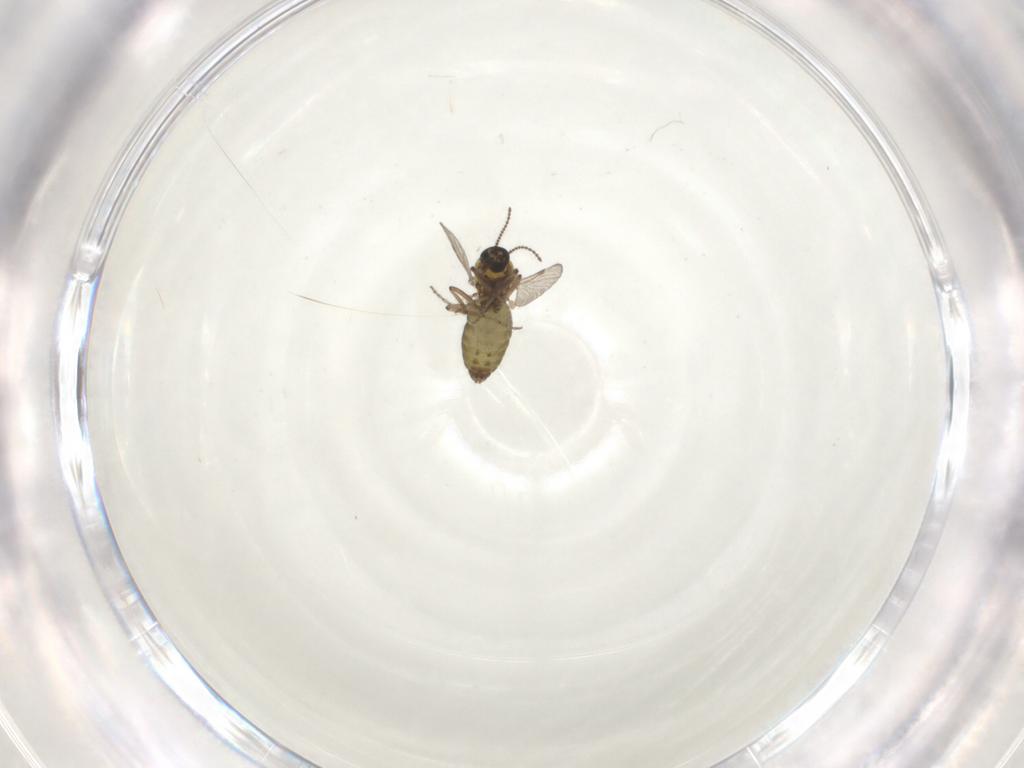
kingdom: Animalia
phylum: Arthropoda
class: Insecta
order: Diptera
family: Ceratopogonidae
